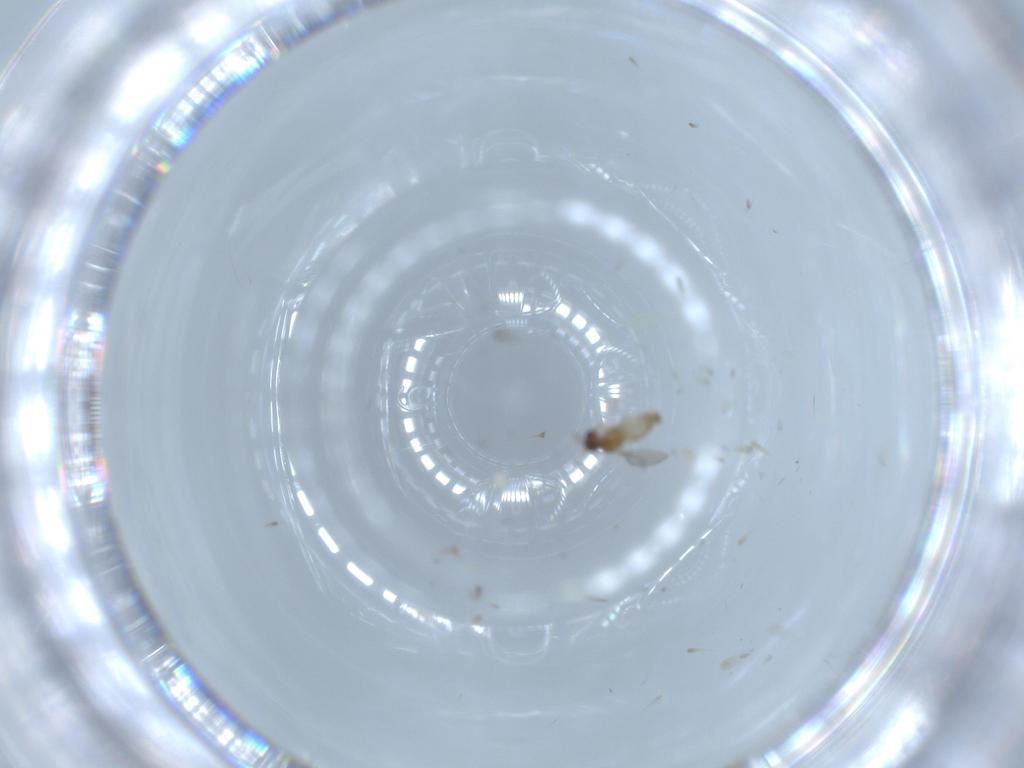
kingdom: Animalia
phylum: Arthropoda
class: Insecta
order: Diptera
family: Cecidomyiidae
